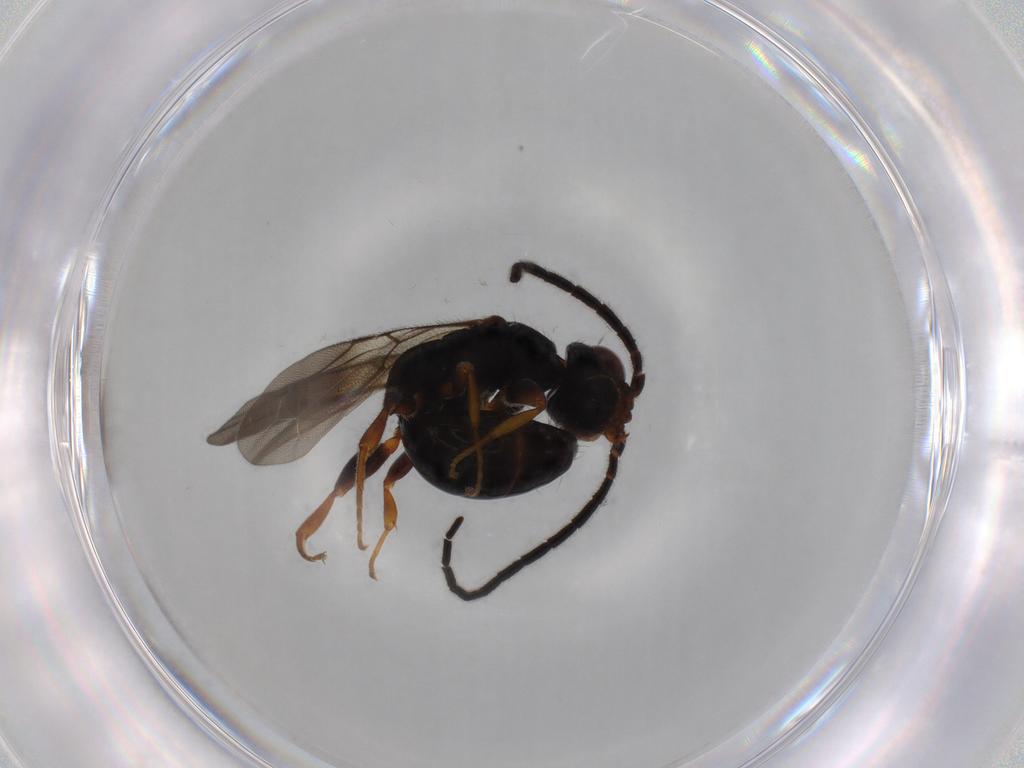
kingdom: Animalia
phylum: Arthropoda
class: Insecta
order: Hymenoptera
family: Bethylidae
